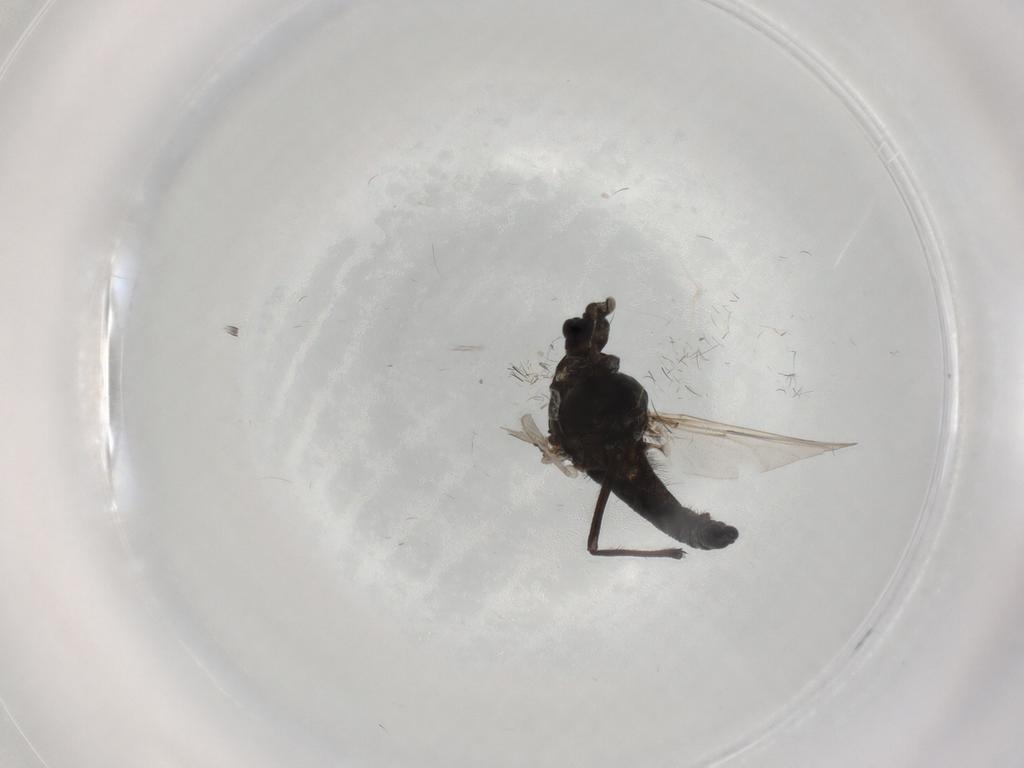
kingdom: Animalia
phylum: Arthropoda
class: Insecta
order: Diptera
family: Chironomidae
